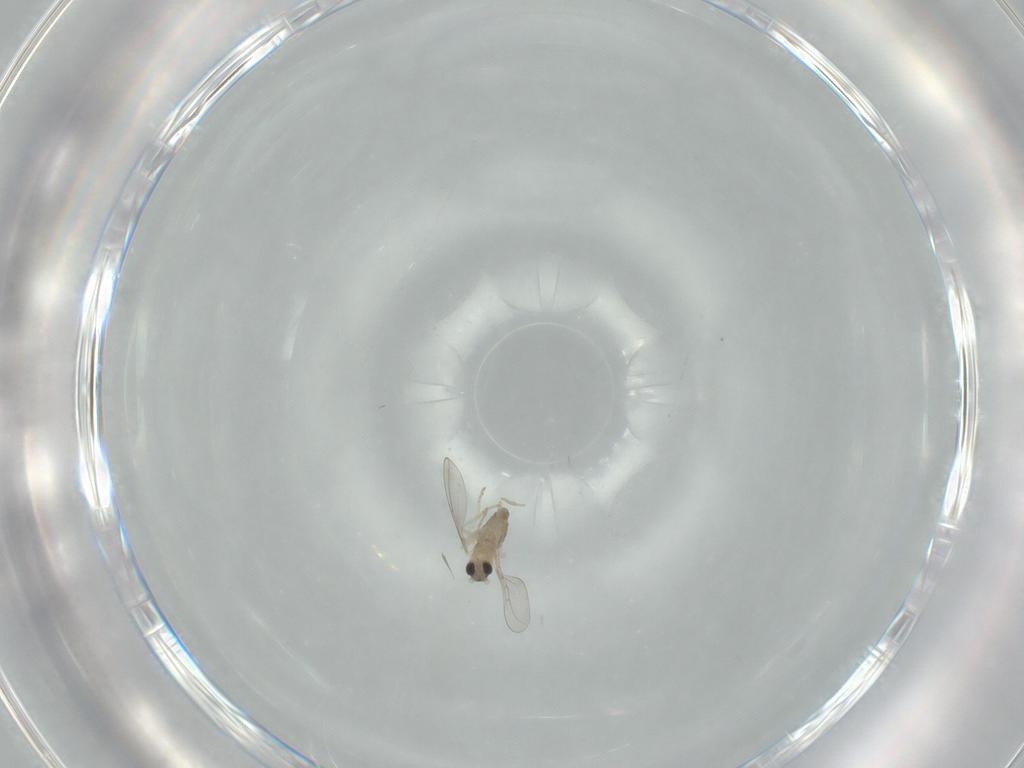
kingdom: Animalia
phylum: Arthropoda
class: Insecta
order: Diptera
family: Cecidomyiidae
